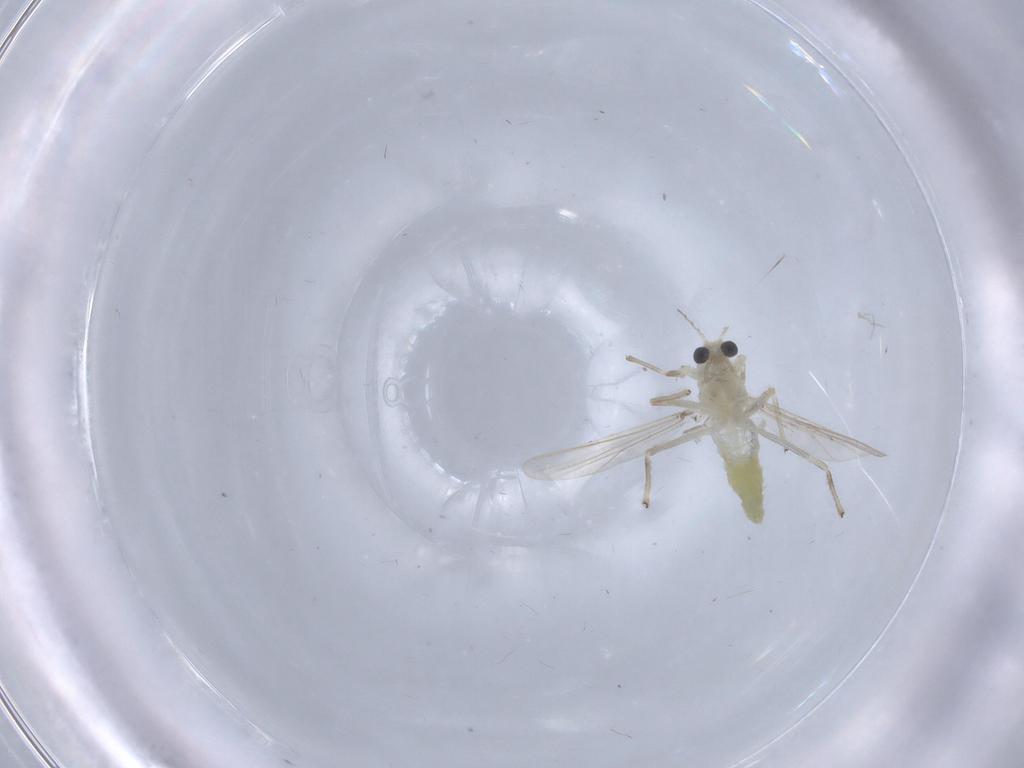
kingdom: Animalia
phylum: Arthropoda
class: Insecta
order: Diptera
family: Chironomidae
